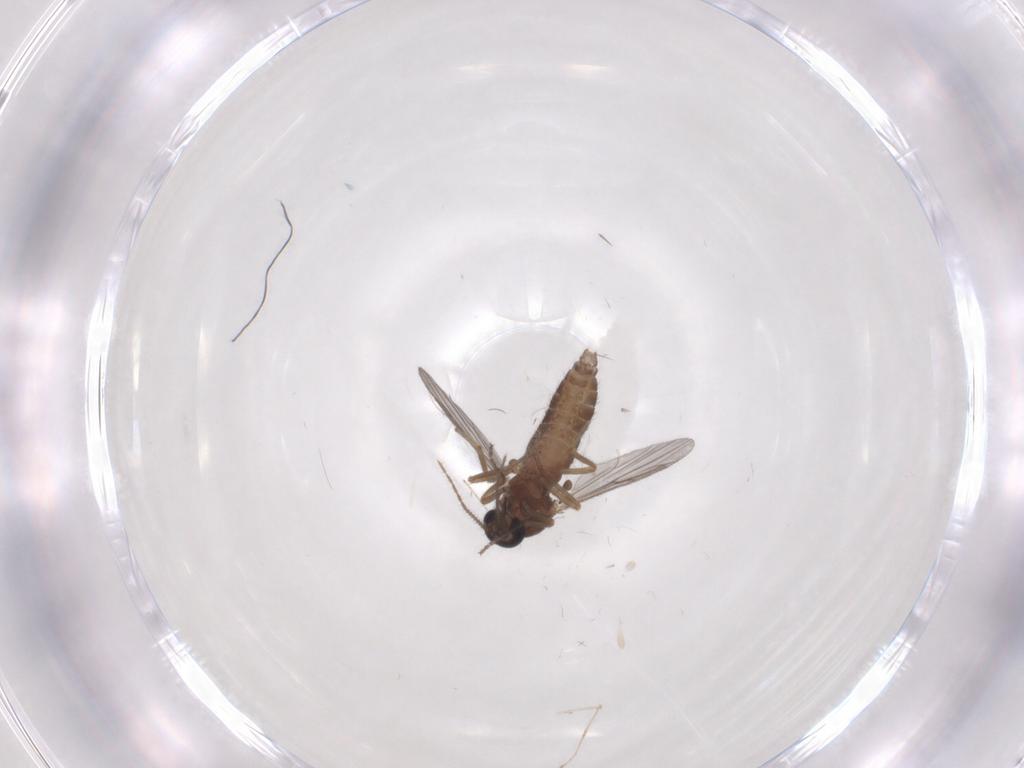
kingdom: Animalia
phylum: Arthropoda
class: Insecta
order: Diptera
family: Ceratopogonidae
